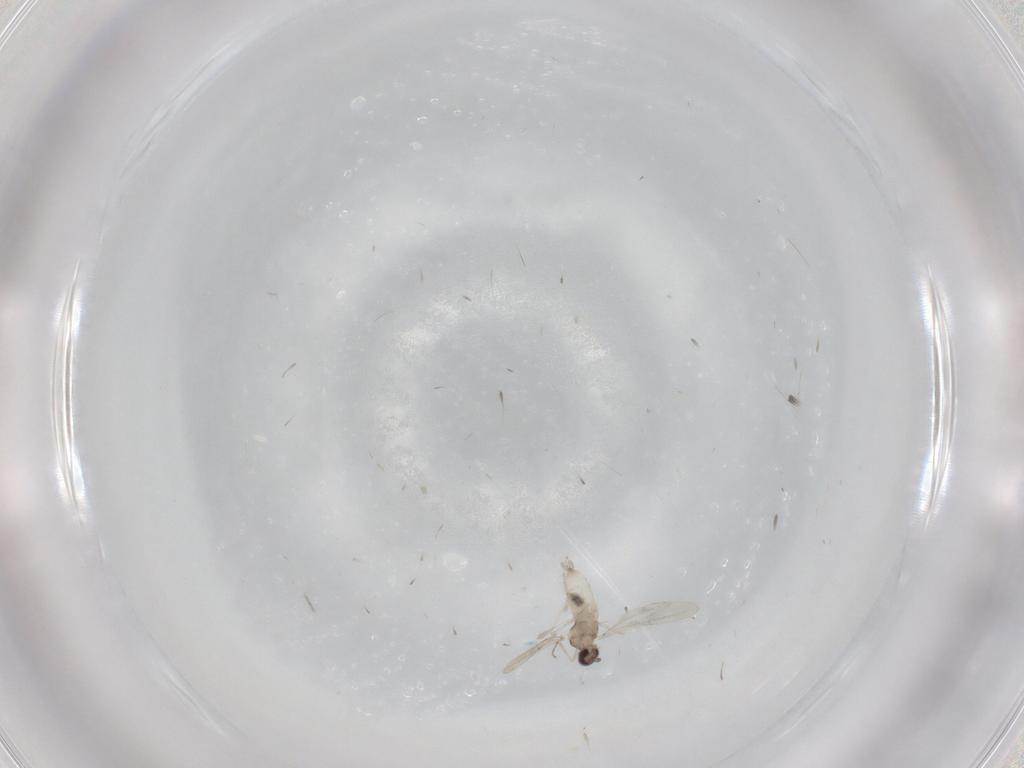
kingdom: Animalia
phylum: Arthropoda
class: Insecta
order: Diptera
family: Cecidomyiidae
